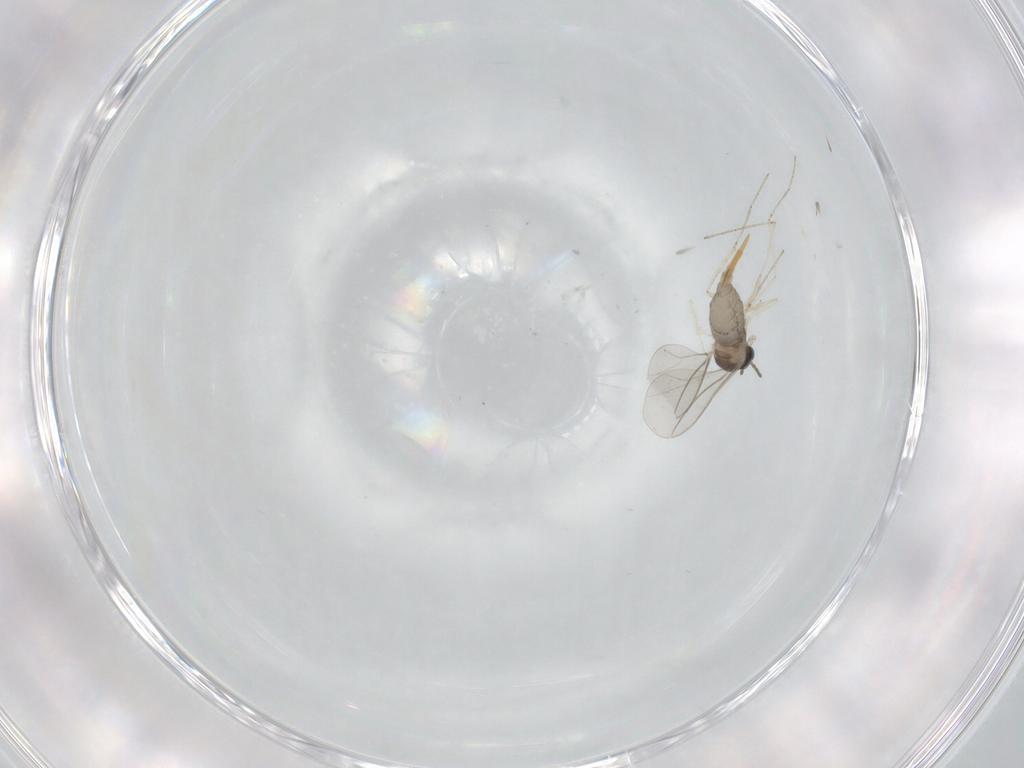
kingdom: Animalia
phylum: Arthropoda
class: Insecta
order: Diptera
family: Cecidomyiidae
